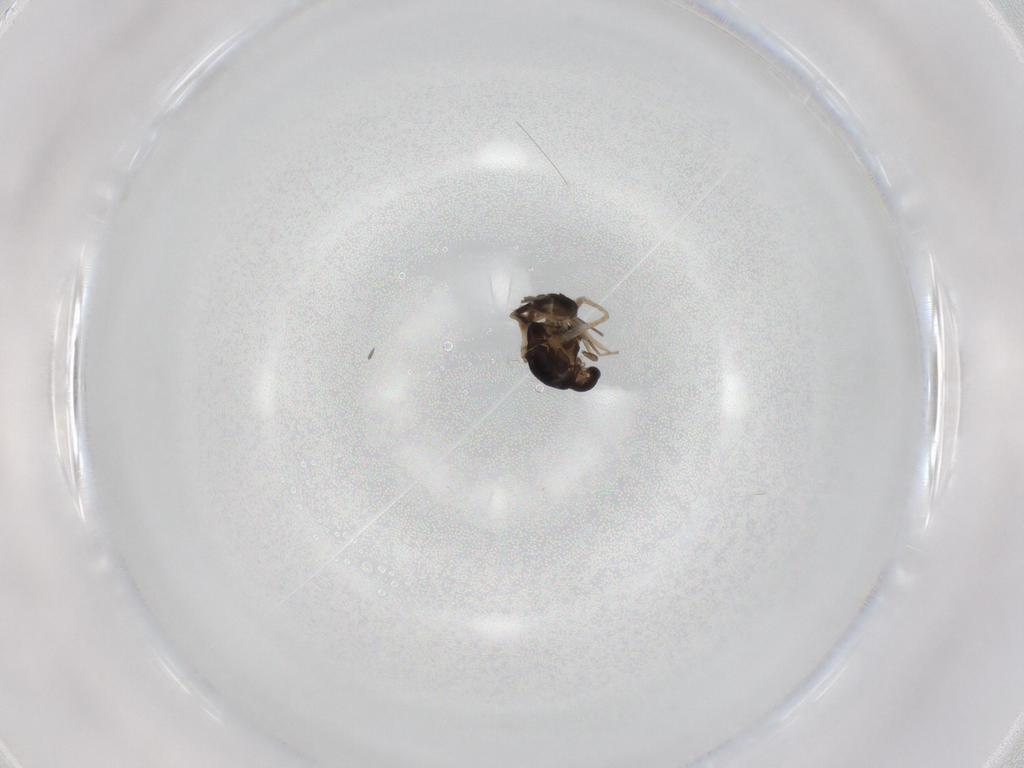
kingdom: Animalia
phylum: Arthropoda
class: Insecta
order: Diptera
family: Chironomidae
